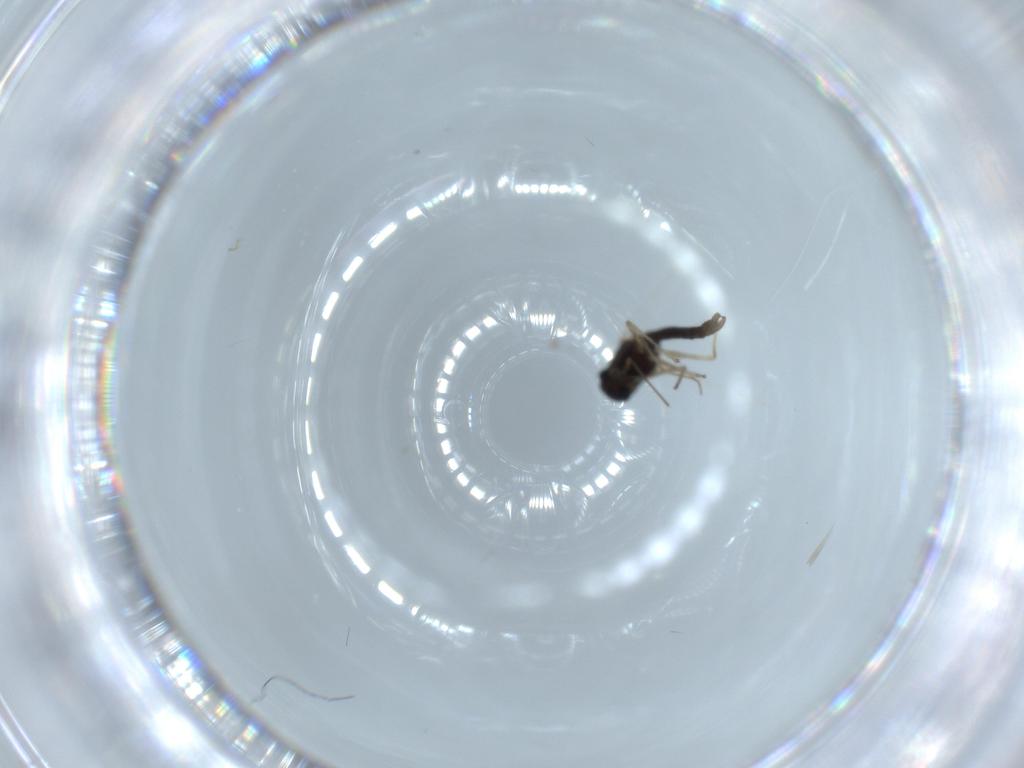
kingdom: Animalia
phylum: Arthropoda
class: Insecta
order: Diptera
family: Chironomidae
